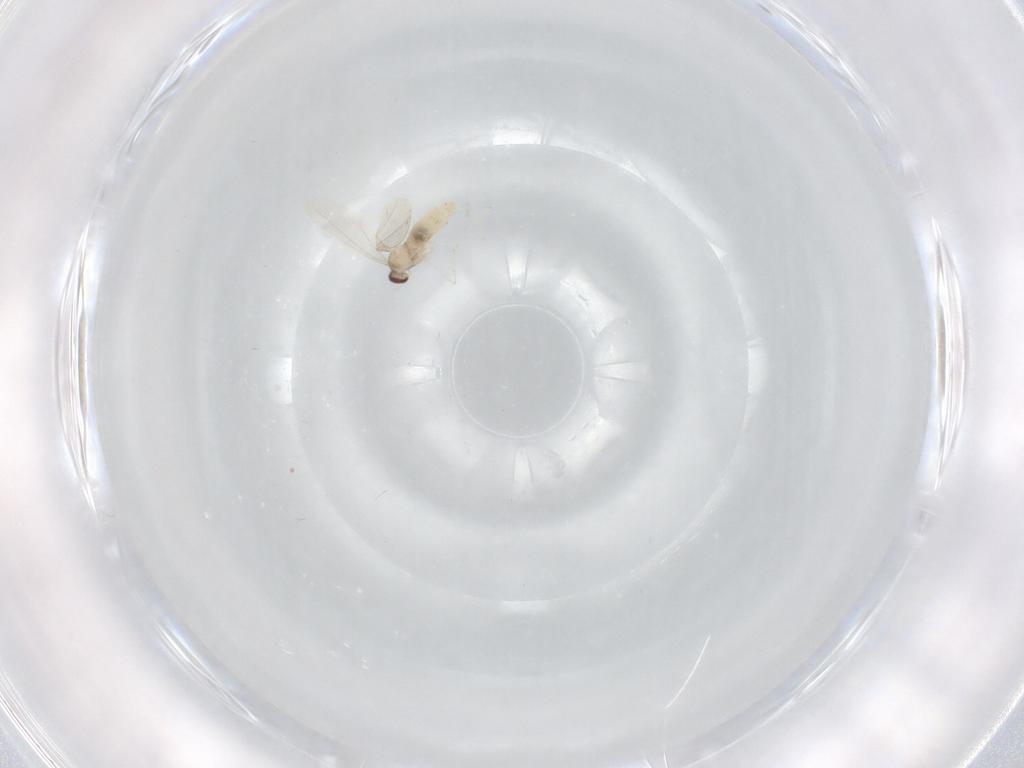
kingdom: Animalia
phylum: Arthropoda
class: Insecta
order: Diptera
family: Cecidomyiidae
